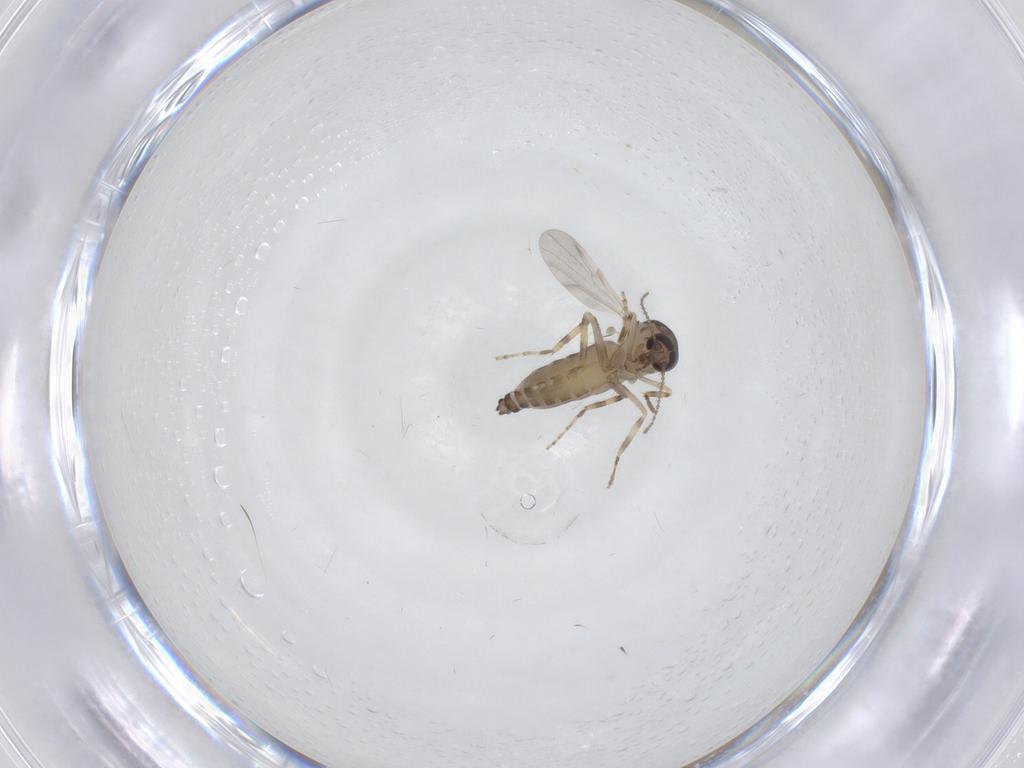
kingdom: Animalia
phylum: Arthropoda
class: Insecta
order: Diptera
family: Ceratopogonidae
